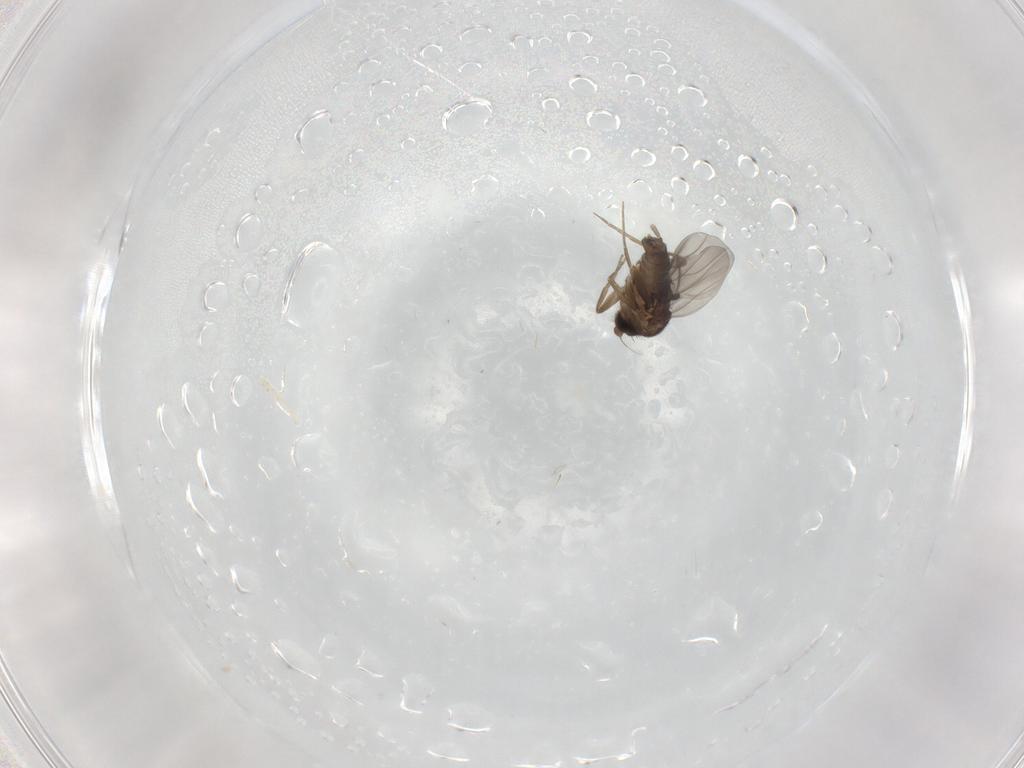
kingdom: Animalia
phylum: Arthropoda
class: Insecta
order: Diptera
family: Phoridae
